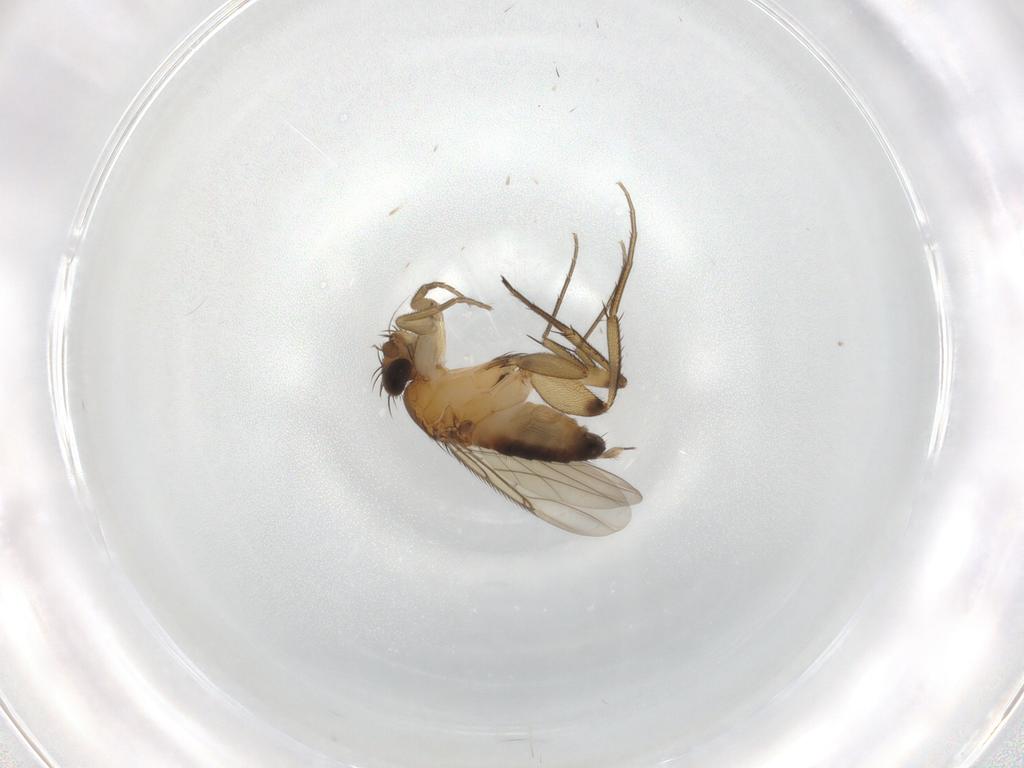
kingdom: Animalia
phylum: Arthropoda
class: Insecta
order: Diptera
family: Phoridae
